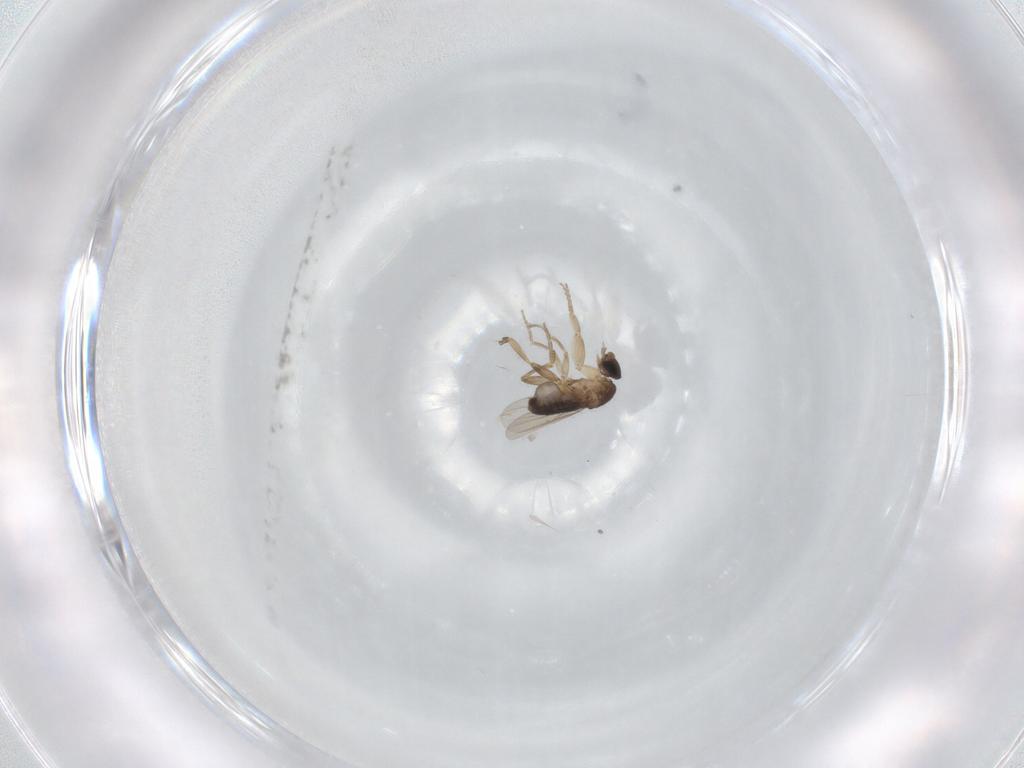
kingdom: Animalia
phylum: Arthropoda
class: Insecta
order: Diptera
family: Phoridae
